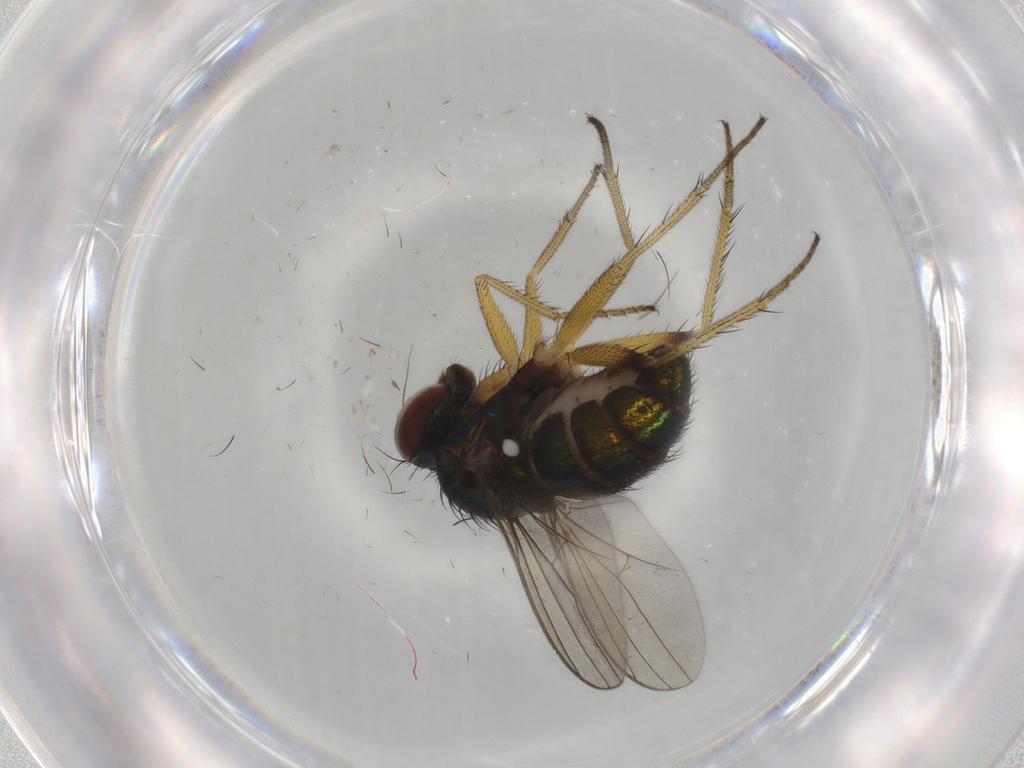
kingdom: Animalia
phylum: Arthropoda
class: Insecta
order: Diptera
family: Dolichopodidae
